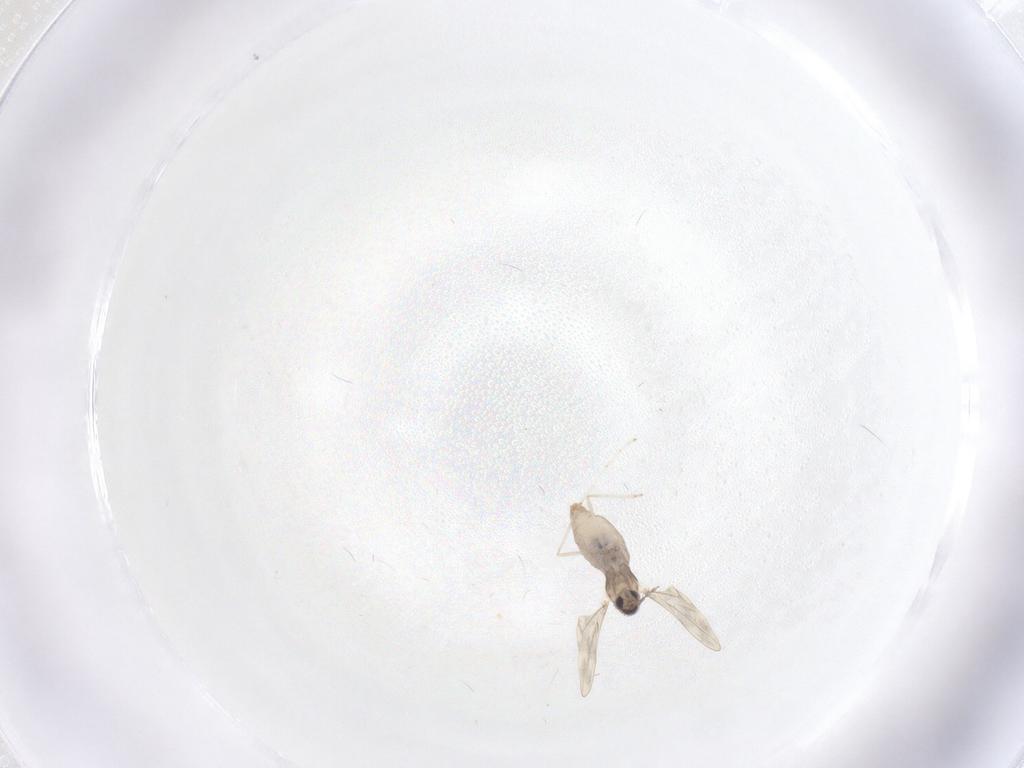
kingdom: Animalia
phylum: Arthropoda
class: Insecta
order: Diptera
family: Cecidomyiidae
